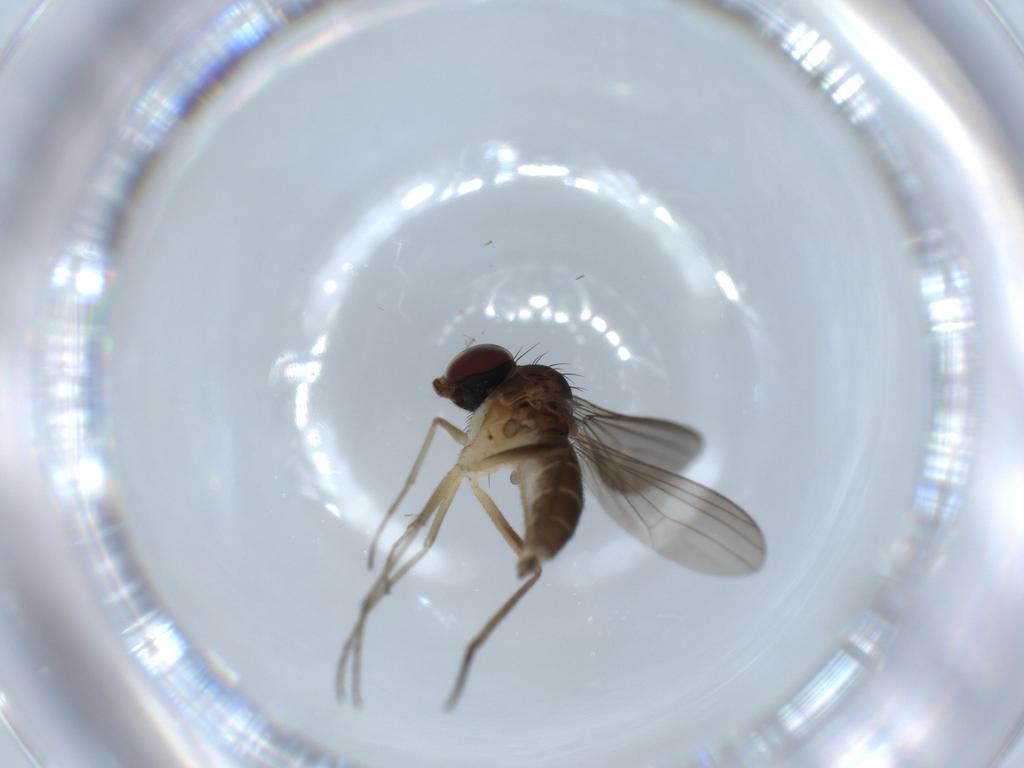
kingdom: Animalia
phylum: Arthropoda
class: Insecta
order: Diptera
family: Dolichopodidae
